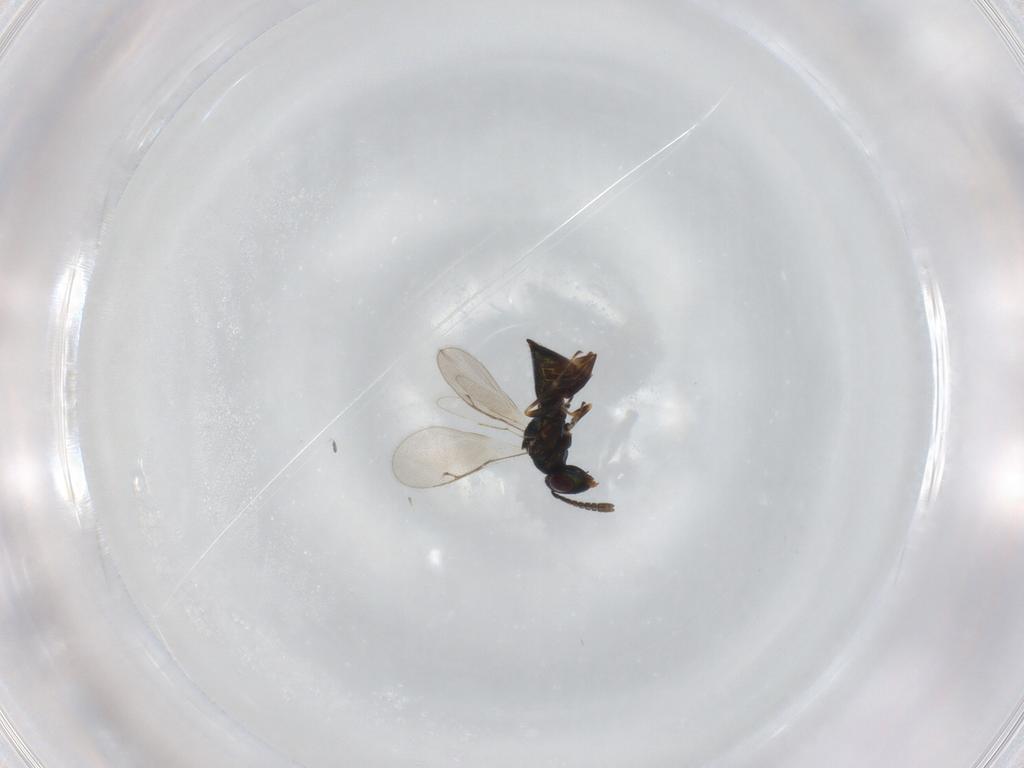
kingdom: Animalia
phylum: Arthropoda
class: Insecta
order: Hymenoptera
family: Pteromalidae
